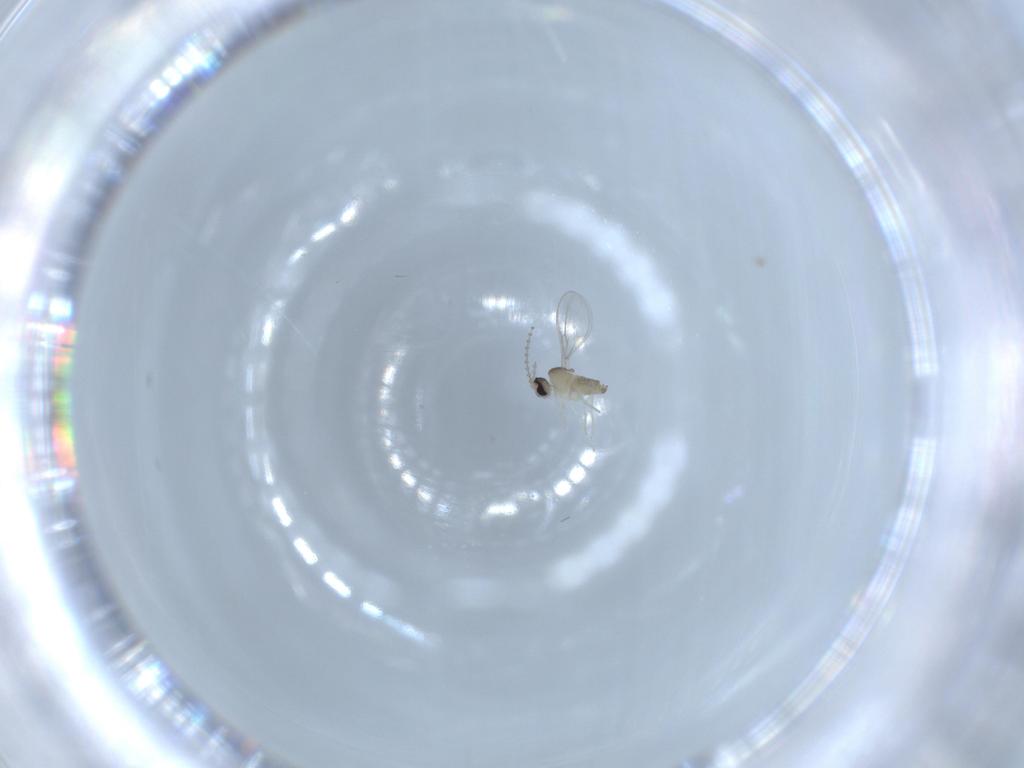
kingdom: Animalia
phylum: Arthropoda
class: Insecta
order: Diptera
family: Cecidomyiidae
